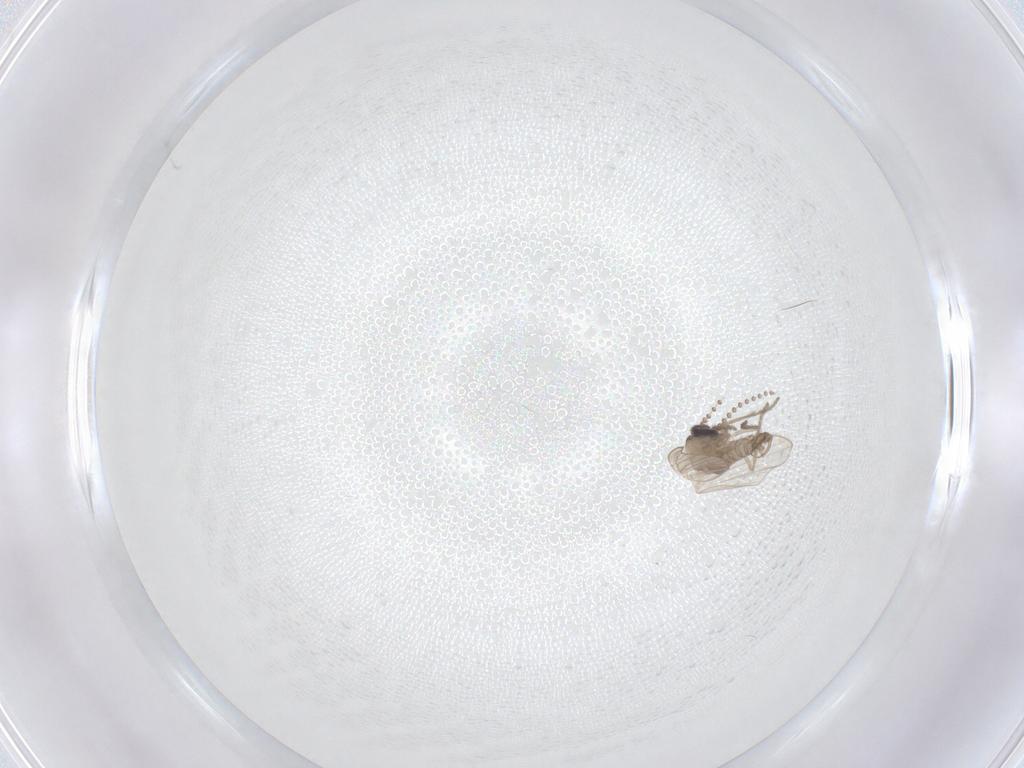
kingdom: Animalia
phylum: Arthropoda
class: Insecta
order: Diptera
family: Psychodidae
